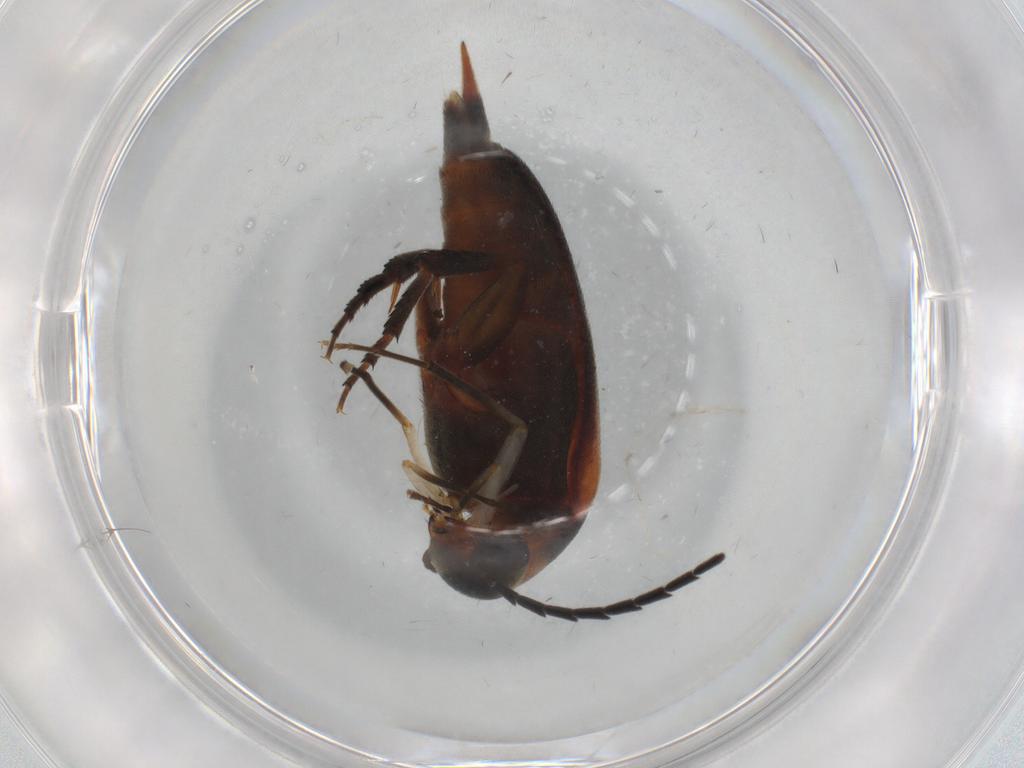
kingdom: Animalia
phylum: Arthropoda
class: Insecta
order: Coleoptera
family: Mordellidae
